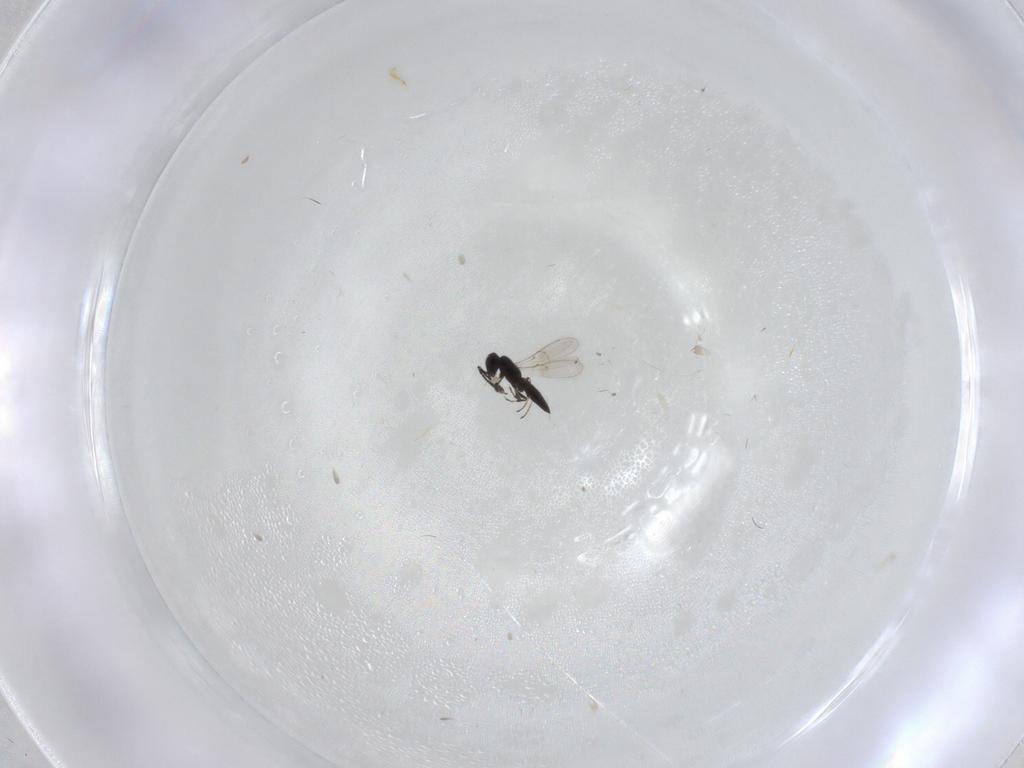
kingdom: Animalia
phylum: Arthropoda
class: Insecta
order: Hymenoptera
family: Scelionidae
